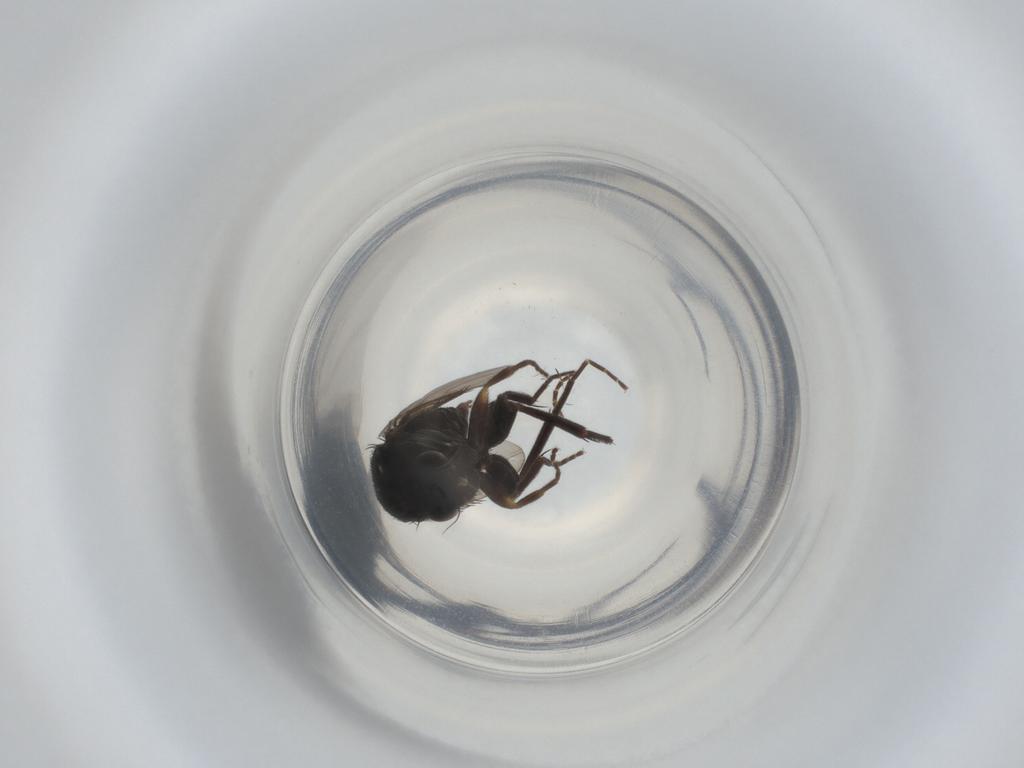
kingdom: Animalia
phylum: Arthropoda
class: Insecta
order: Diptera
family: Phoridae
